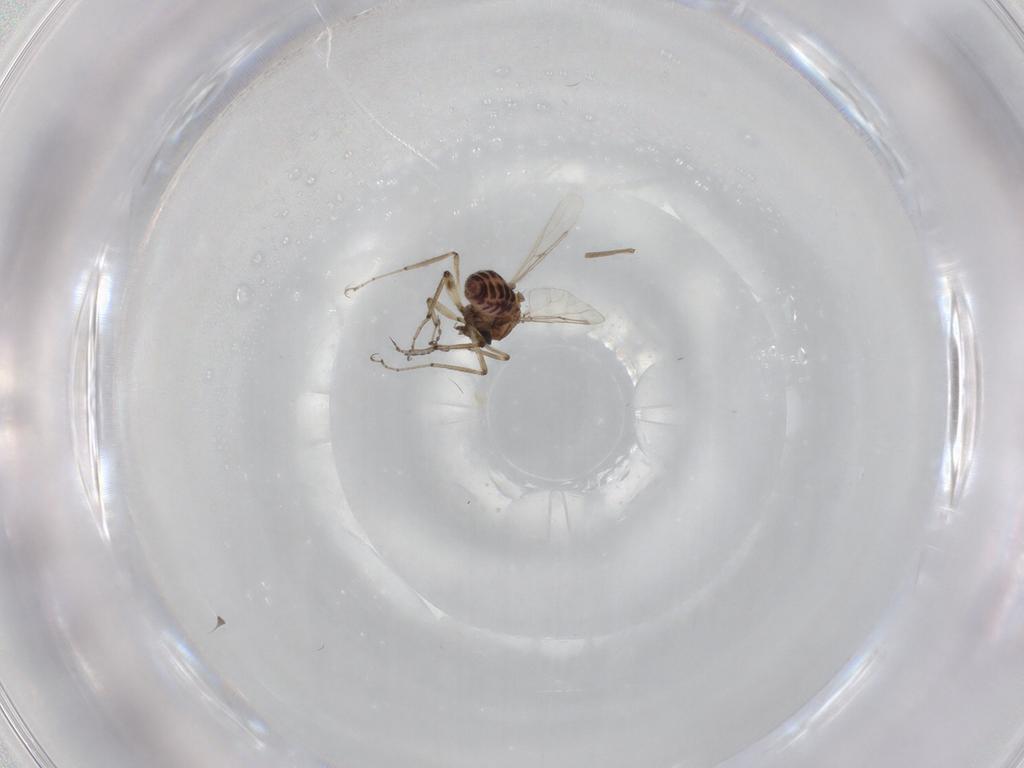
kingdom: Animalia
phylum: Arthropoda
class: Insecta
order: Diptera
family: Ceratopogonidae
